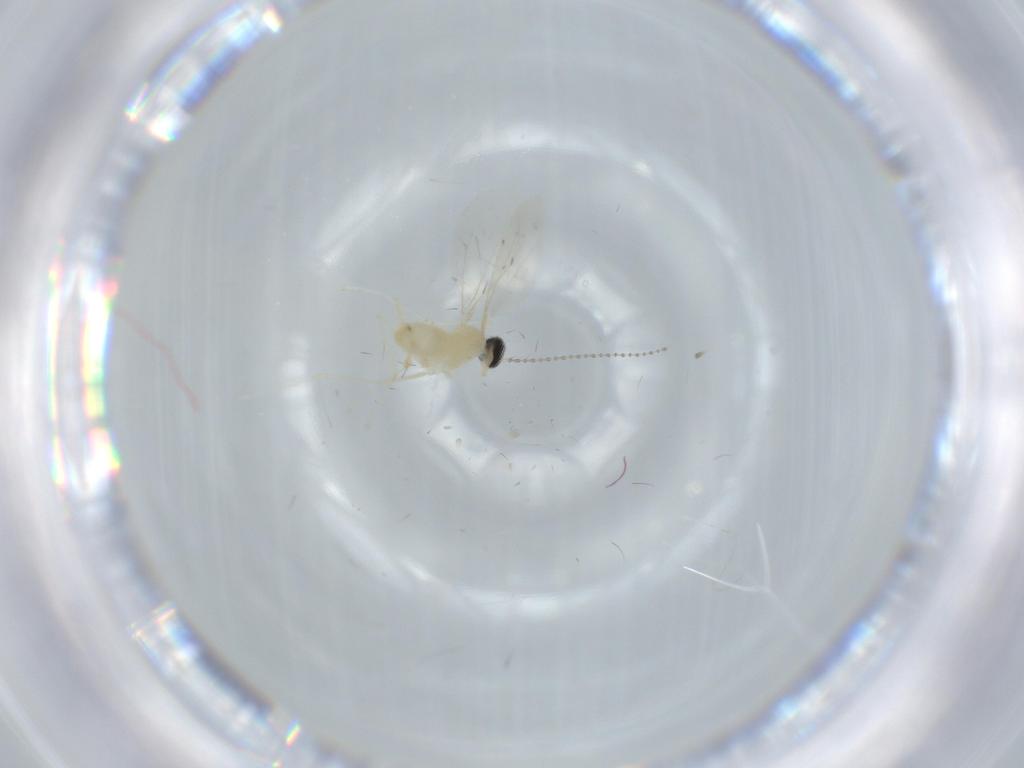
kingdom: Animalia
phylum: Arthropoda
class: Insecta
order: Diptera
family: Cecidomyiidae
